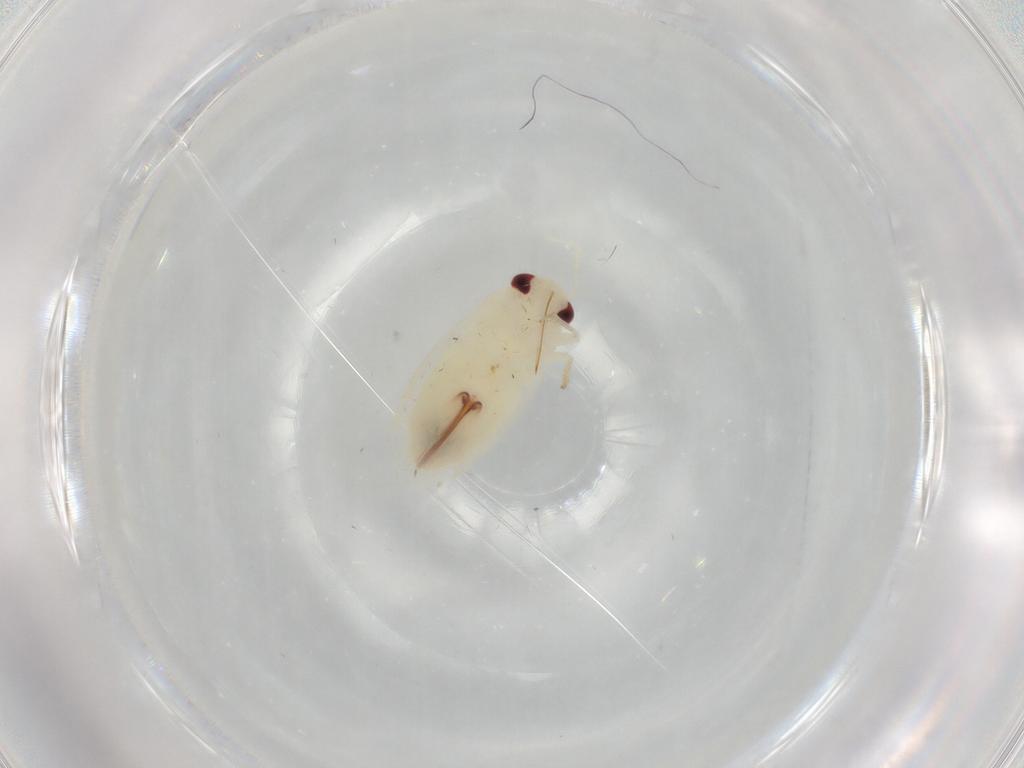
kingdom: Animalia
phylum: Arthropoda
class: Insecta
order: Hemiptera
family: Miridae
